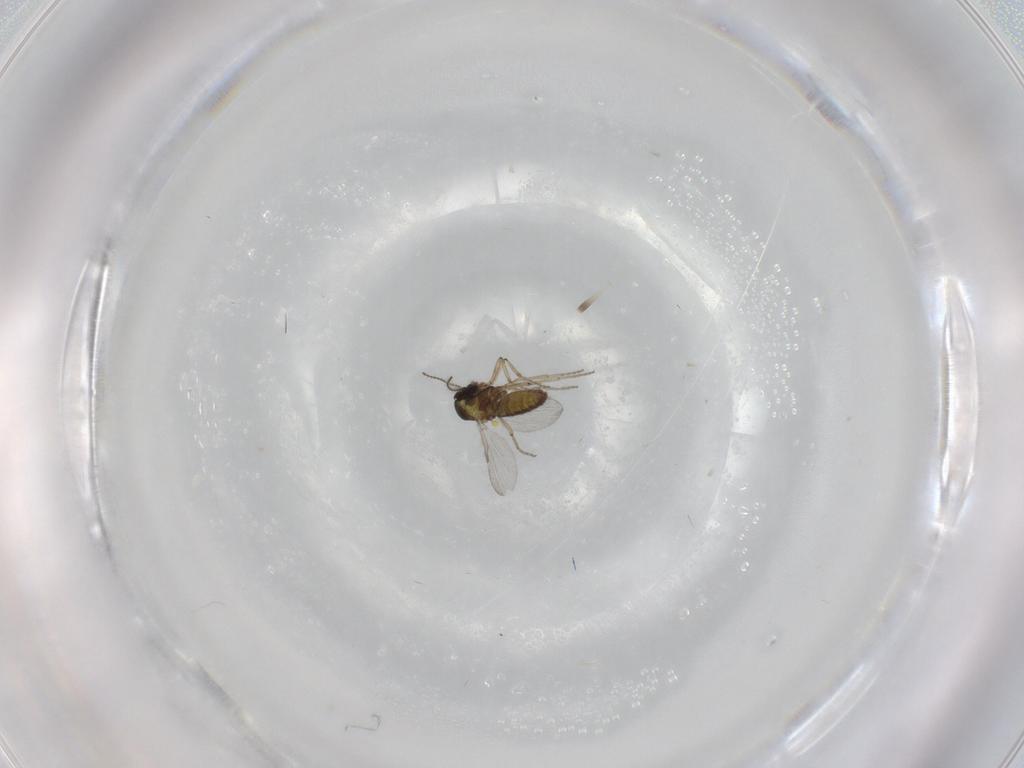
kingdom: Animalia
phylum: Arthropoda
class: Insecta
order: Diptera
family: Ceratopogonidae
